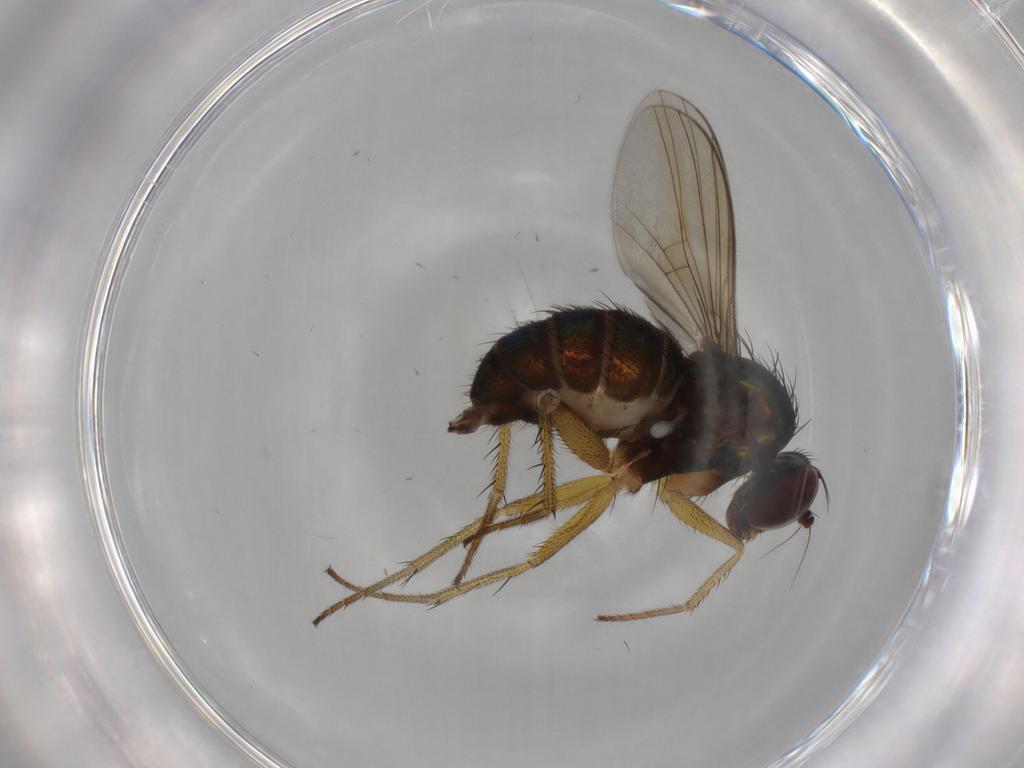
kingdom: Animalia
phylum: Arthropoda
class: Insecta
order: Diptera
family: Dolichopodidae
